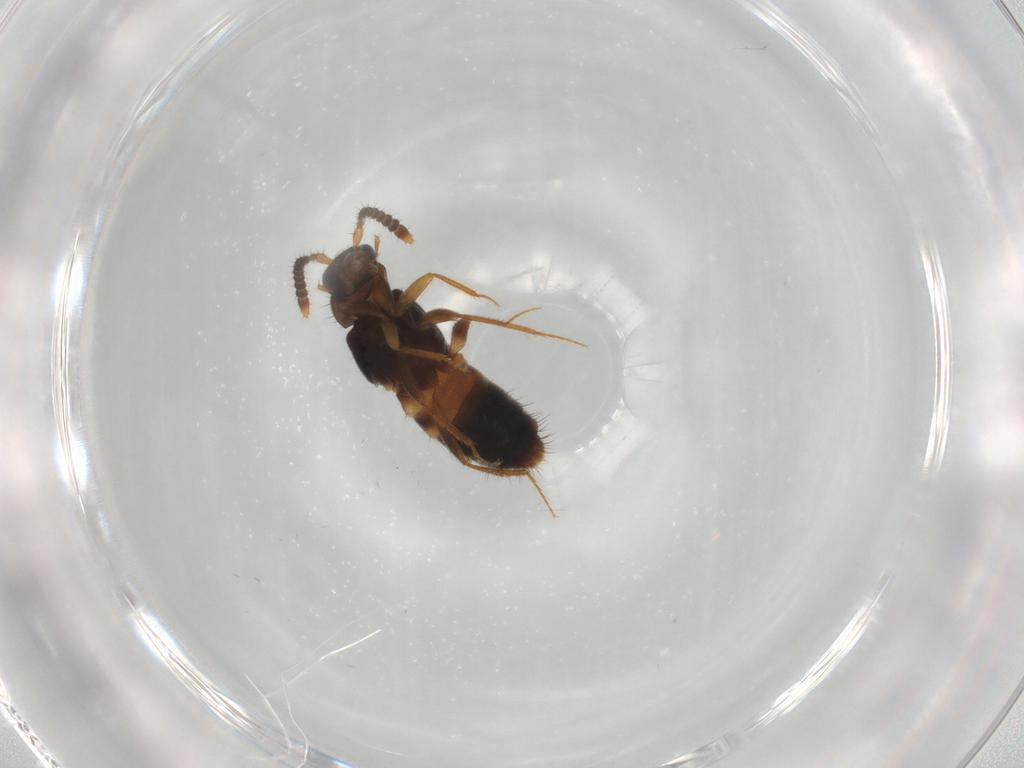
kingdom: Animalia
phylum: Arthropoda
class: Insecta
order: Coleoptera
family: Staphylinidae
